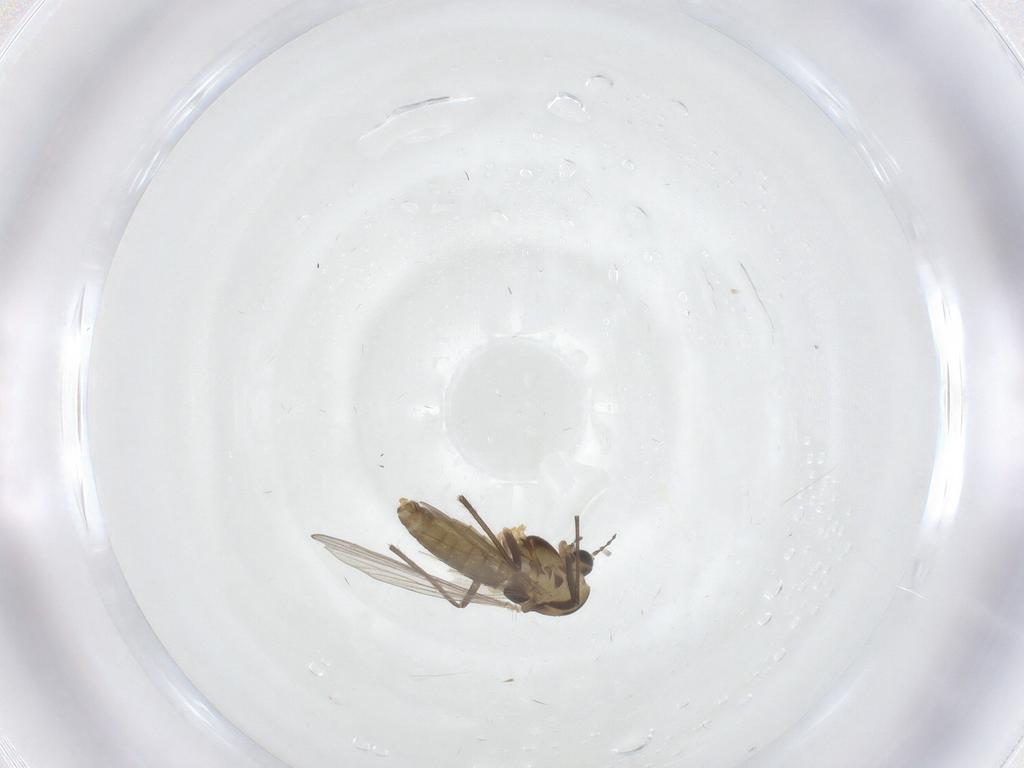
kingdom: Animalia
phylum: Arthropoda
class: Insecta
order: Diptera
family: Chironomidae
